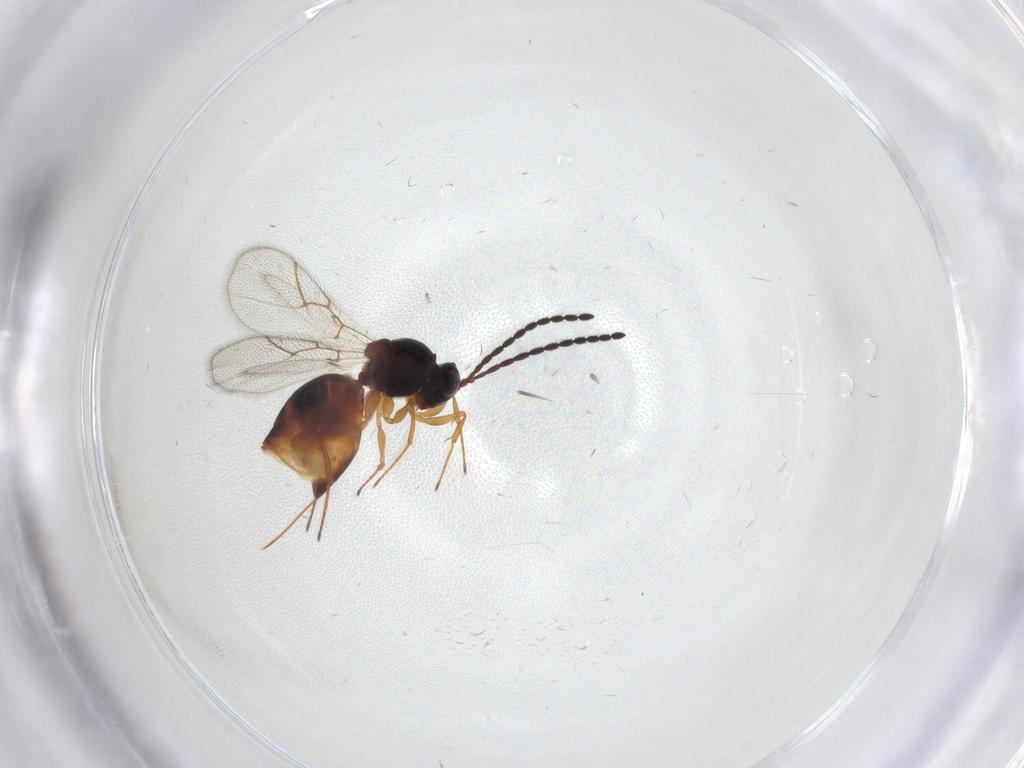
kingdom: Animalia
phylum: Arthropoda
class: Insecta
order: Hymenoptera
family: Figitidae
